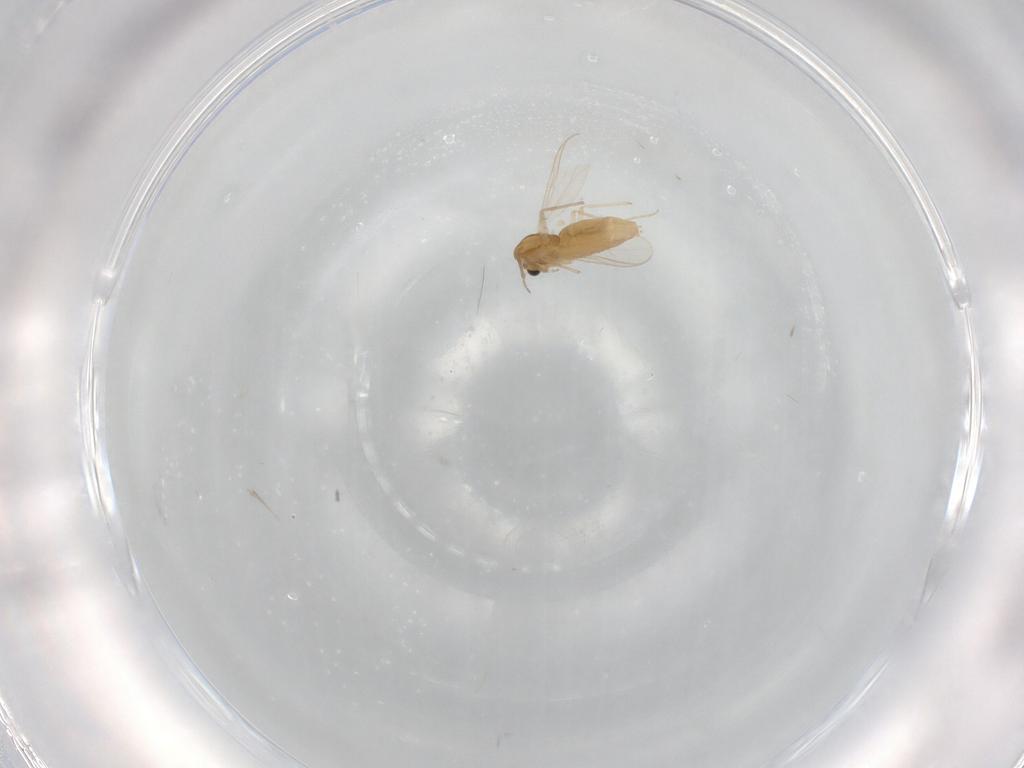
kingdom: Animalia
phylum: Arthropoda
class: Insecta
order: Diptera
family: Chironomidae
